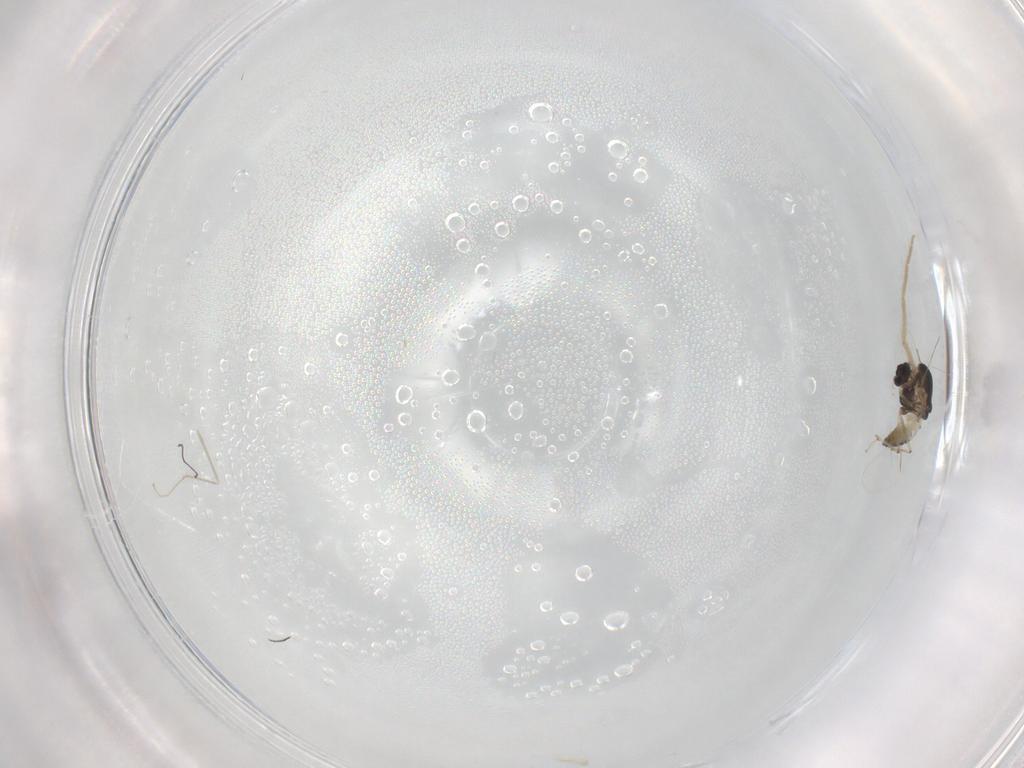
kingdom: Animalia
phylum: Arthropoda
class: Insecta
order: Diptera
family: Chironomidae
